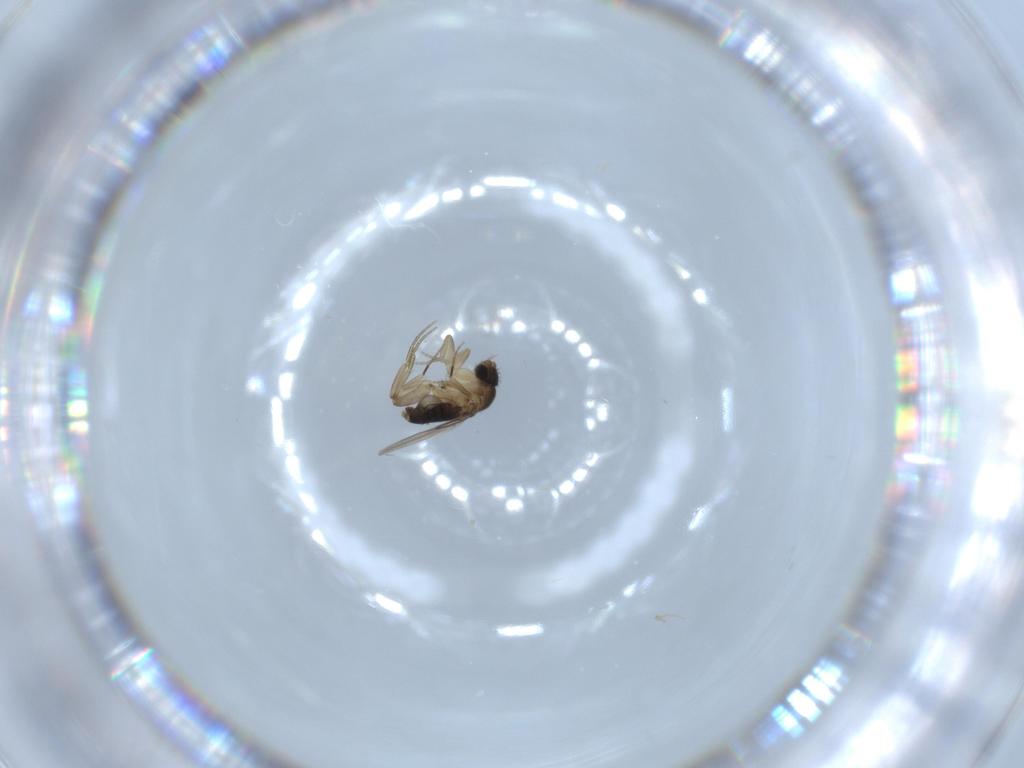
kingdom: Animalia
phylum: Arthropoda
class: Insecta
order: Diptera
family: Phoridae
